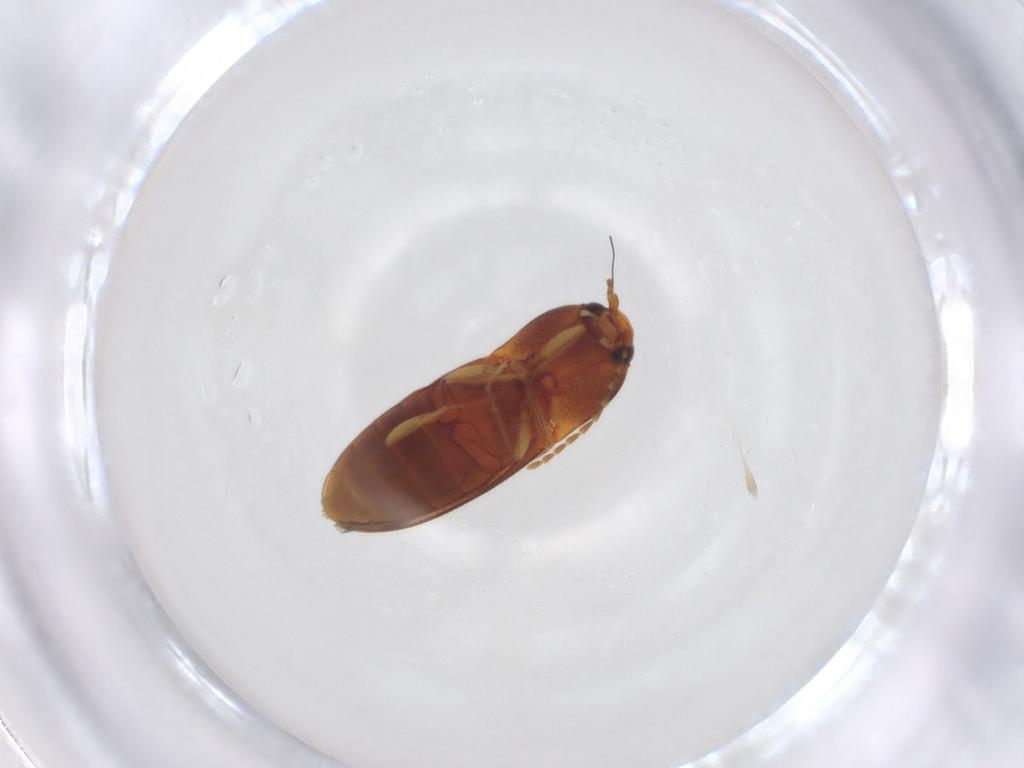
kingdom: Animalia
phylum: Arthropoda
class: Insecta
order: Coleoptera
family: Elateridae
